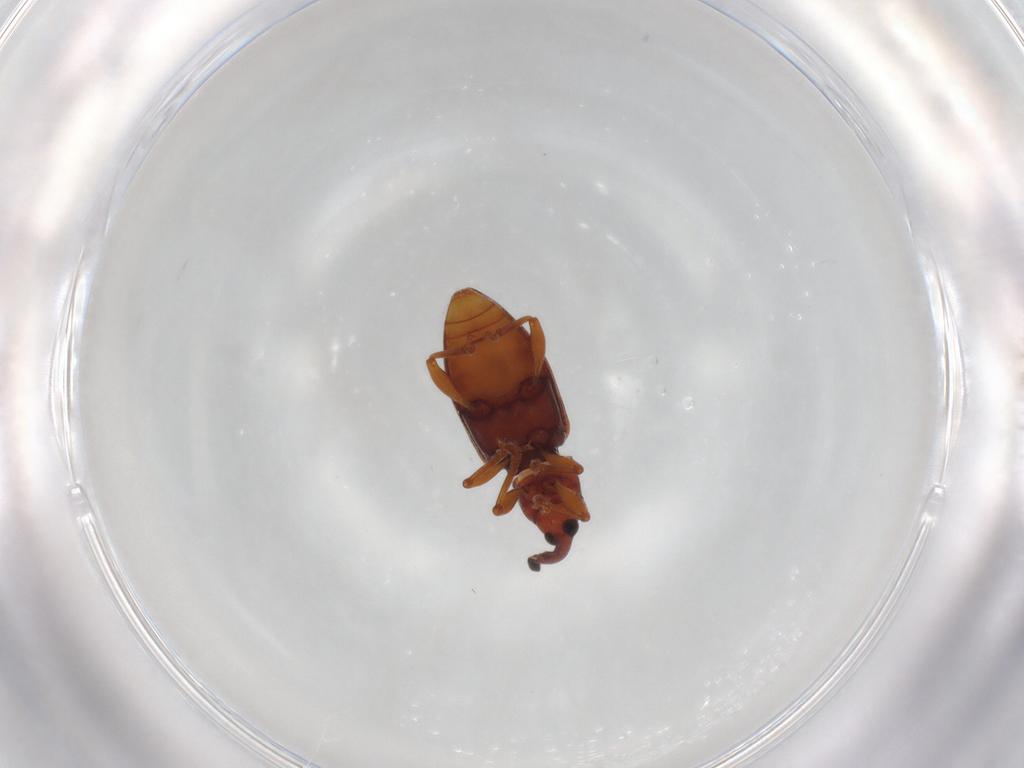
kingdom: Animalia
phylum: Arthropoda
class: Insecta
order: Coleoptera
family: Curculionidae
